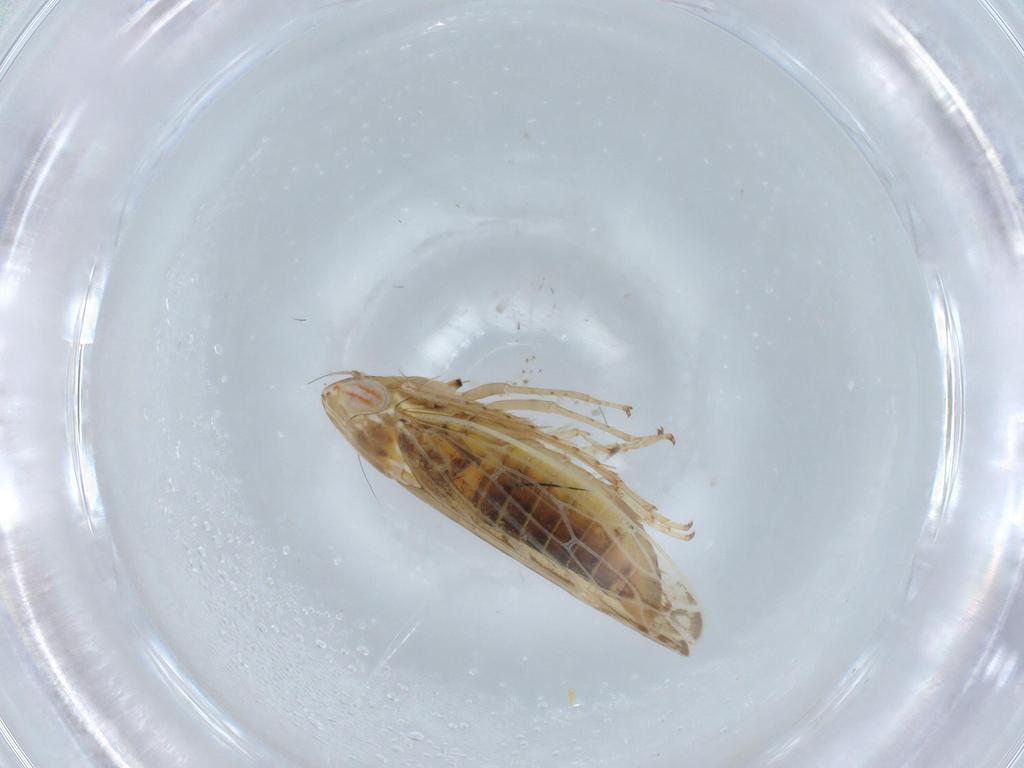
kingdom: Animalia
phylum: Arthropoda
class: Insecta
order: Hemiptera
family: Cicadellidae
